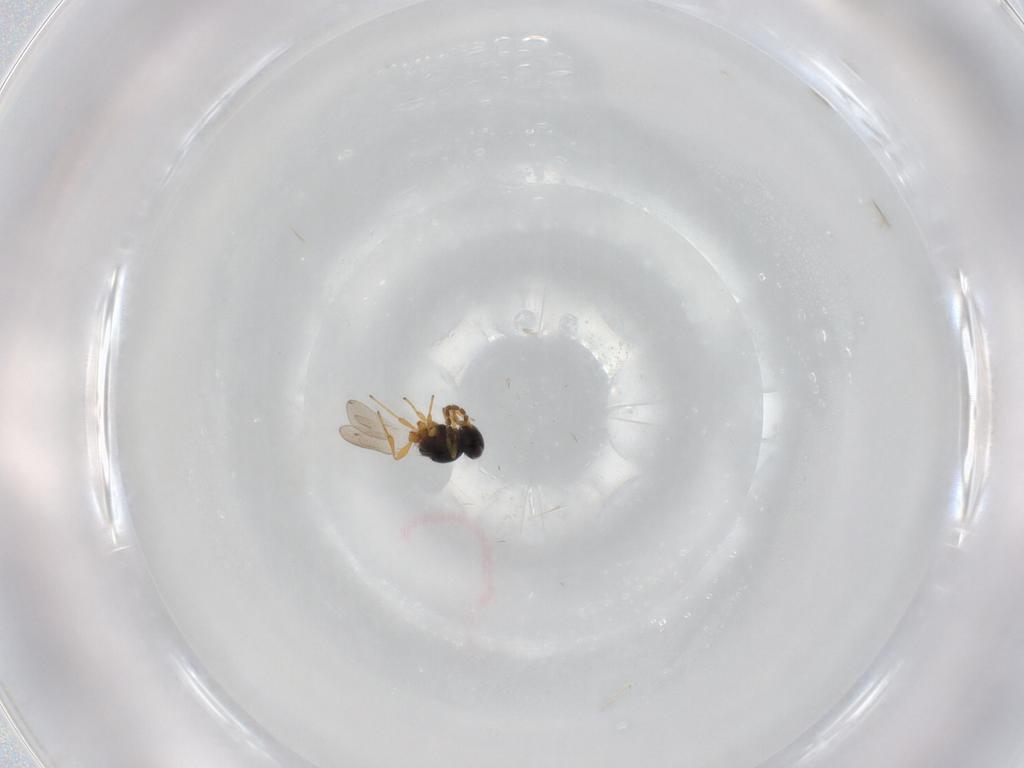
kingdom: Animalia
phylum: Arthropoda
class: Insecta
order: Hymenoptera
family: Platygastridae
